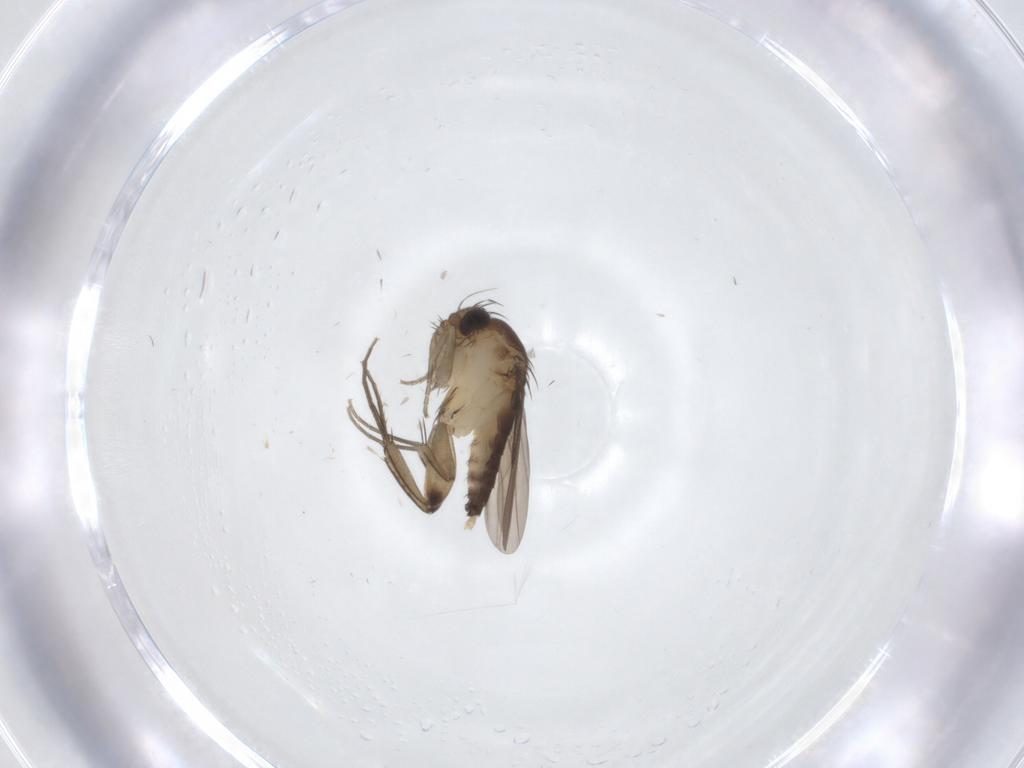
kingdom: Animalia
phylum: Arthropoda
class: Insecta
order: Diptera
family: Phoridae
